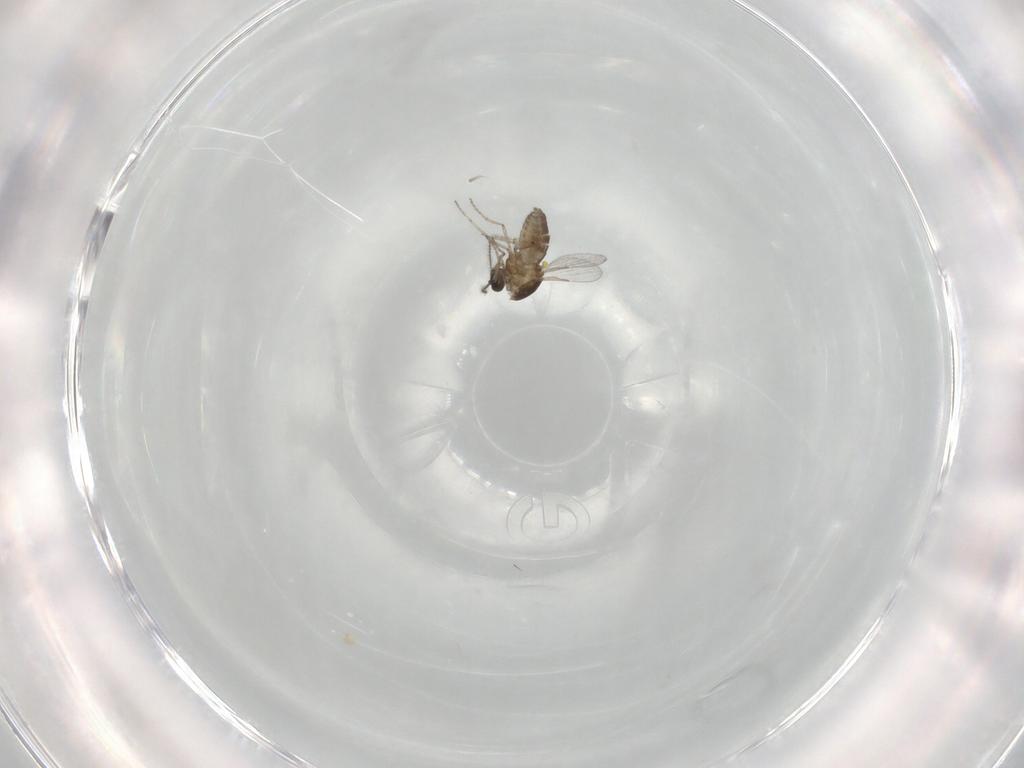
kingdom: Animalia
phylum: Arthropoda
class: Insecta
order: Diptera
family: Ceratopogonidae
